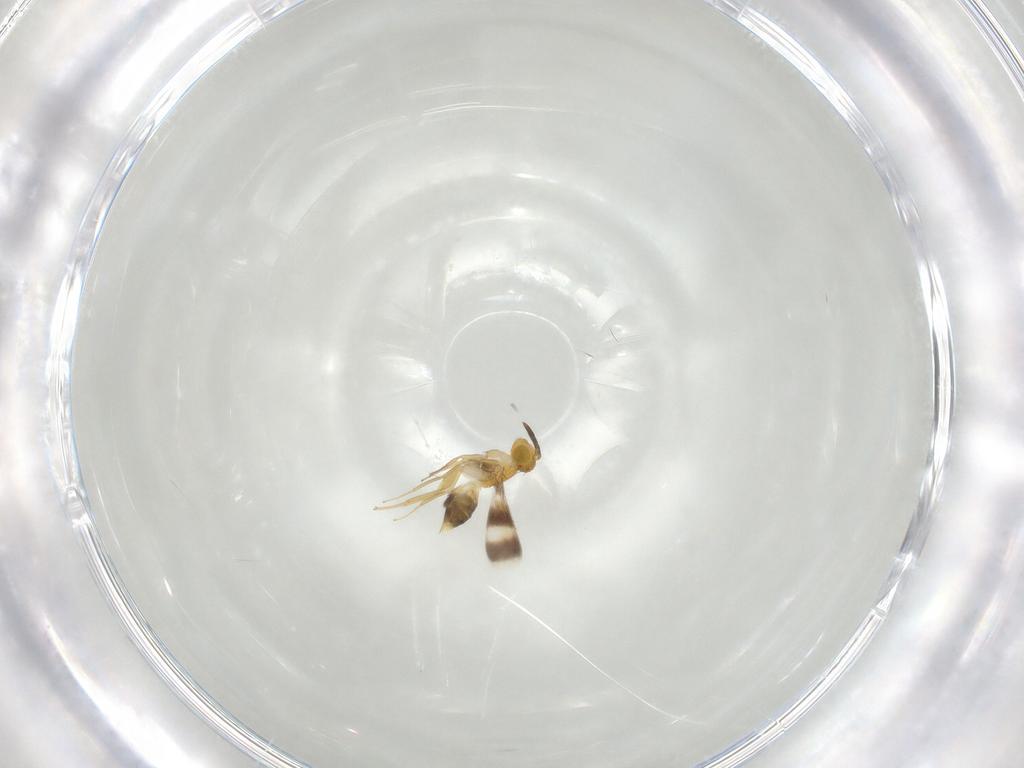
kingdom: Animalia
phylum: Arthropoda
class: Insecta
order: Hymenoptera
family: Aphelinidae
